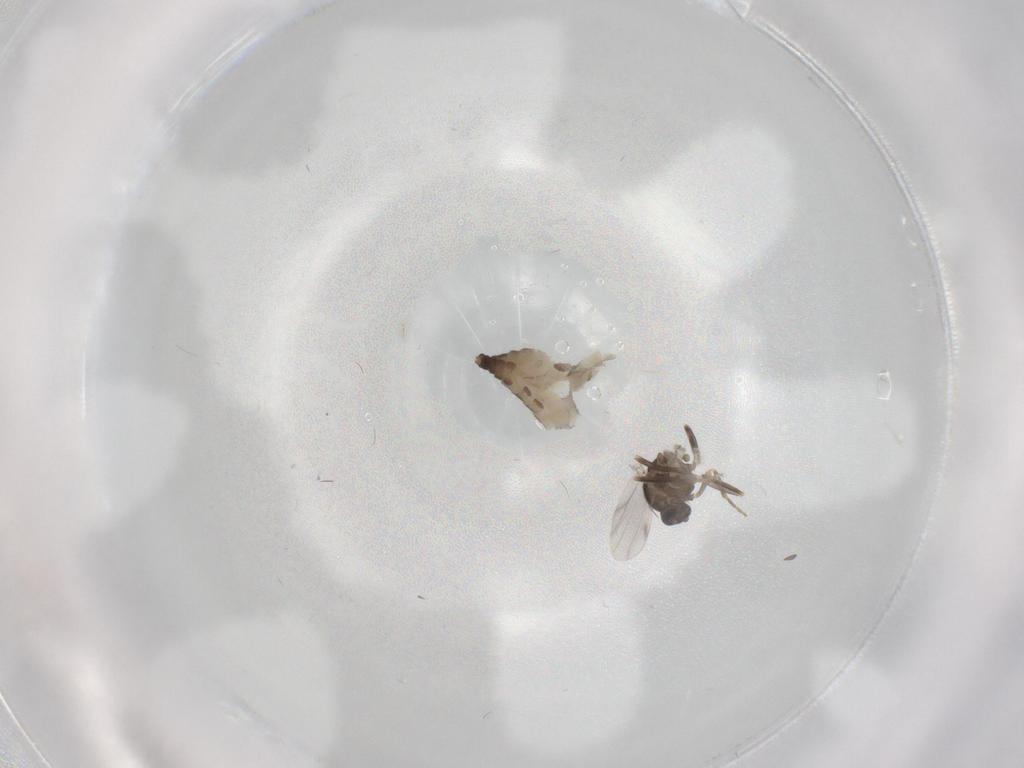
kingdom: Animalia
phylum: Arthropoda
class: Insecta
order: Diptera
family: Ceratopogonidae
